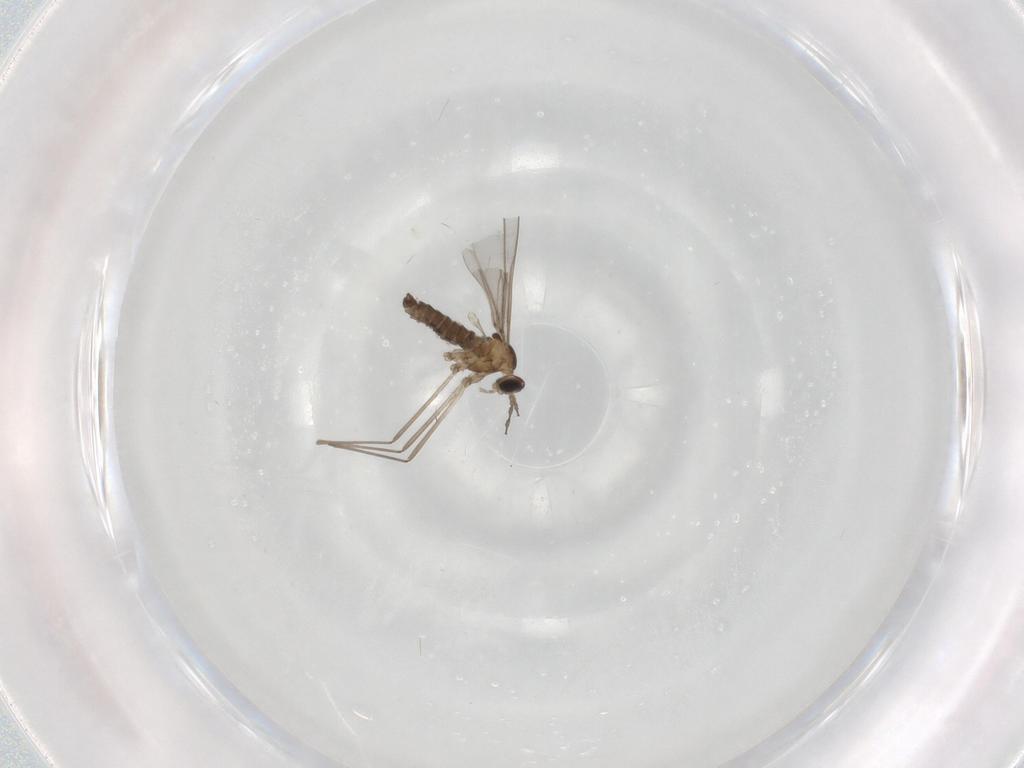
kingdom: Animalia
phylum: Arthropoda
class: Insecta
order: Diptera
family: Cecidomyiidae
